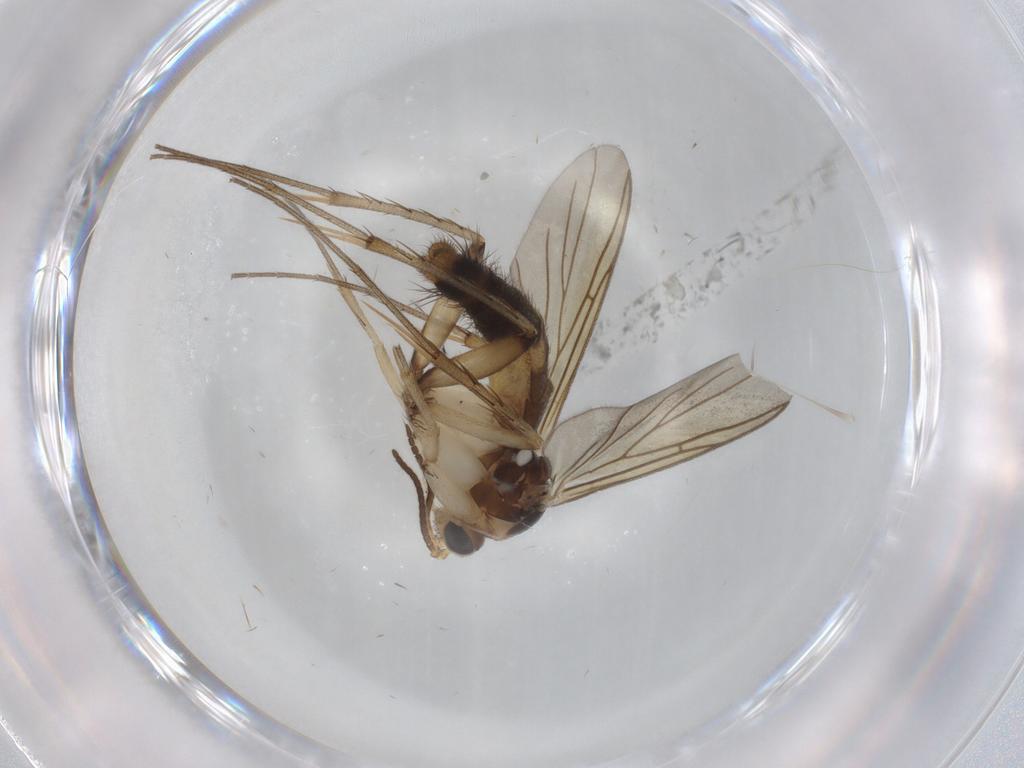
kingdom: Animalia
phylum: Arthropoda
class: Insecta
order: Diptera
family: Mycetophilidae
